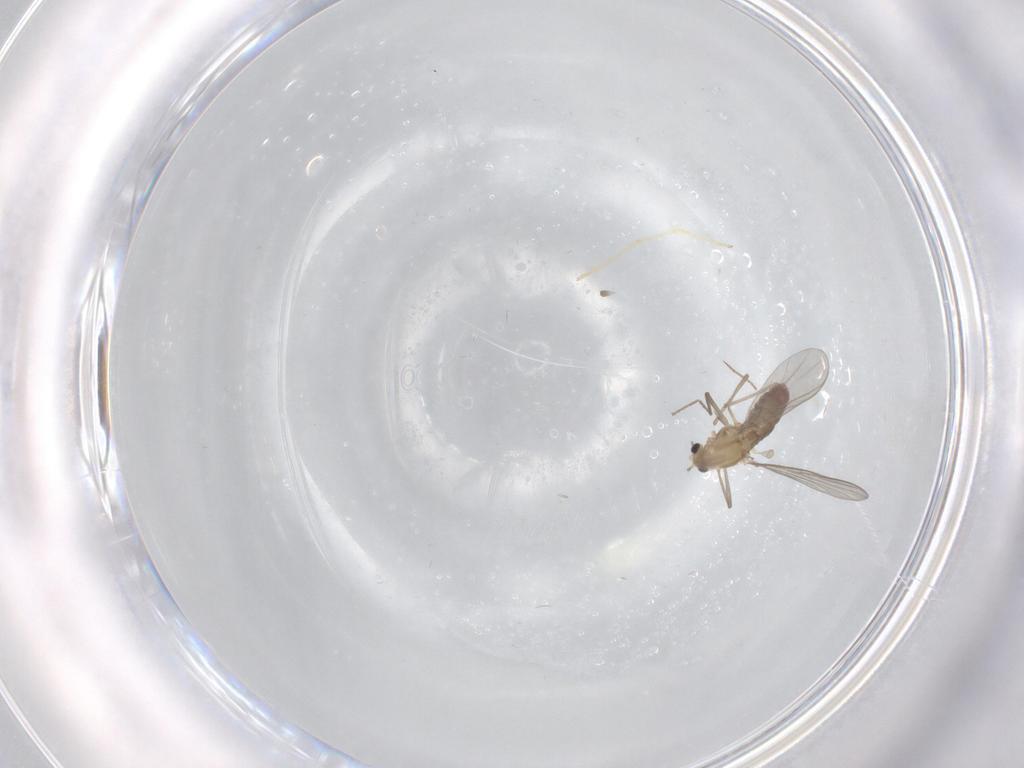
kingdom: Animalia
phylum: Arthropoda
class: Insecta
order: Diptera
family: Chironomidae
